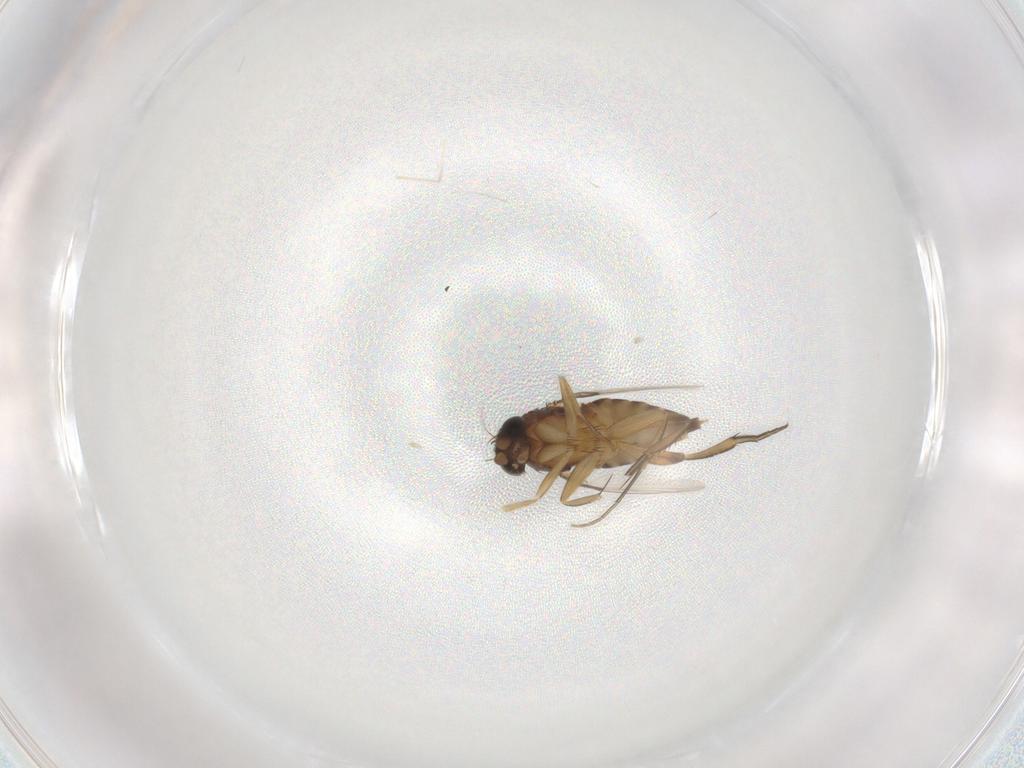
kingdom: Animalia
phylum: Arthropoda
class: Insecta
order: Diptera
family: Phoridae
